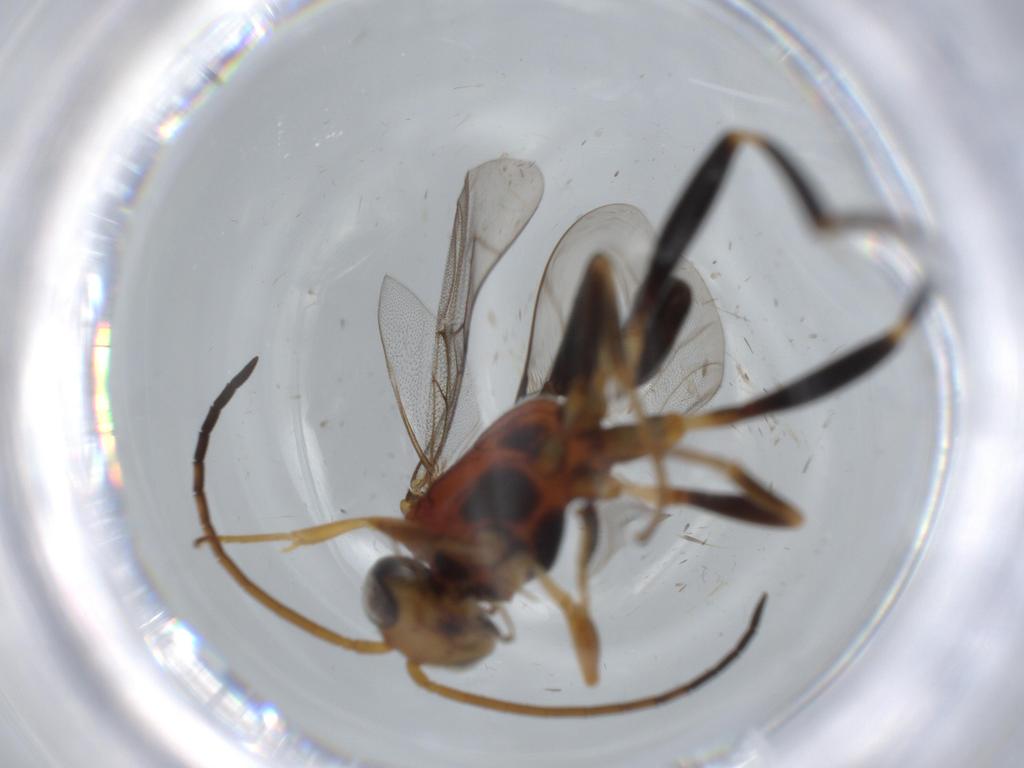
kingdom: Animalia
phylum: Arthropoda
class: Insecta
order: Hymenoptera
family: Evaniidae
